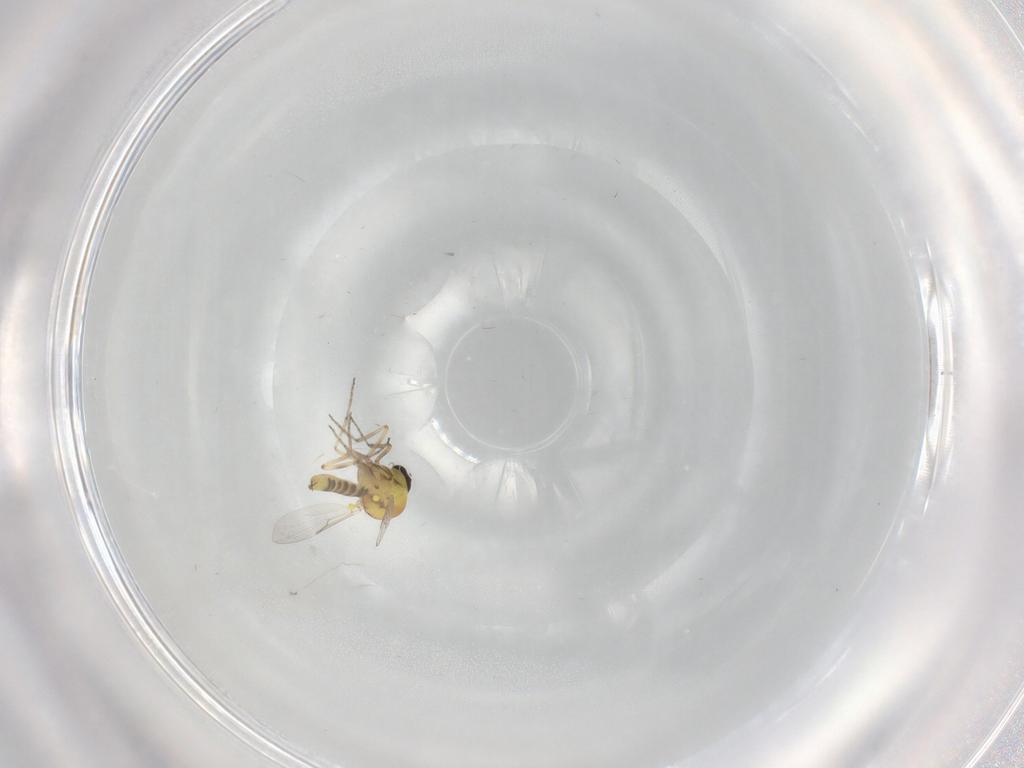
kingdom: Animalia
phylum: Arthropoda
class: Insecta
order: Diptera
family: Ceratopogonidae
